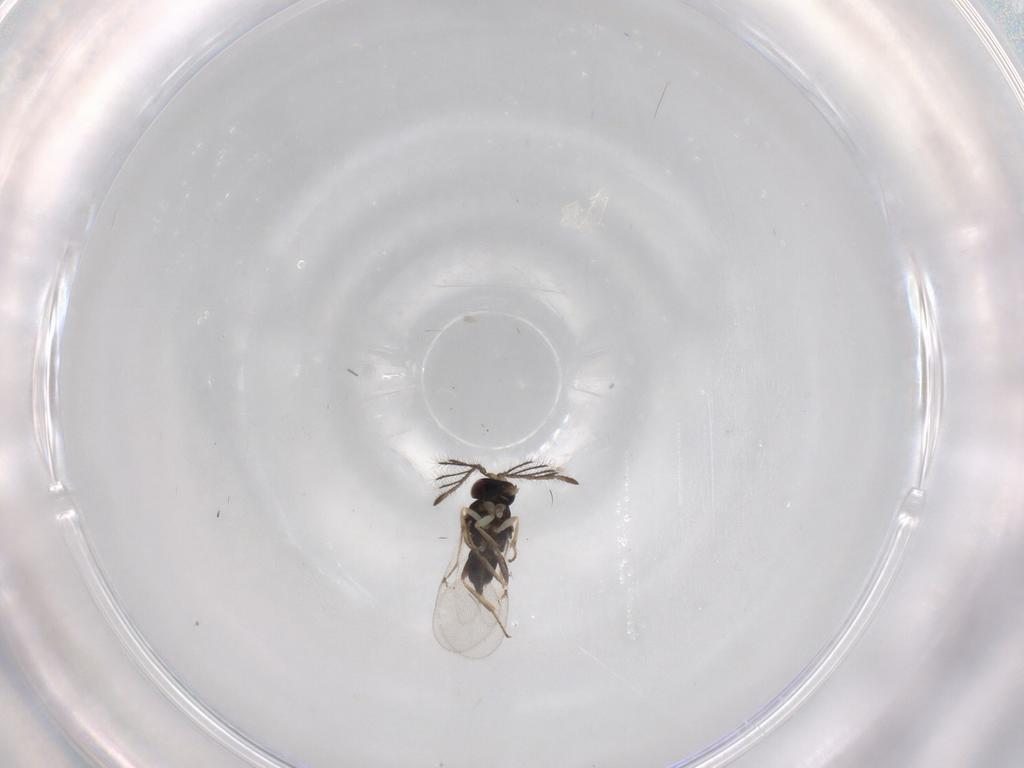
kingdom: Animalia
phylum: Arthropoda
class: Insecta
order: Hymenoptera
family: Encyrtidae
